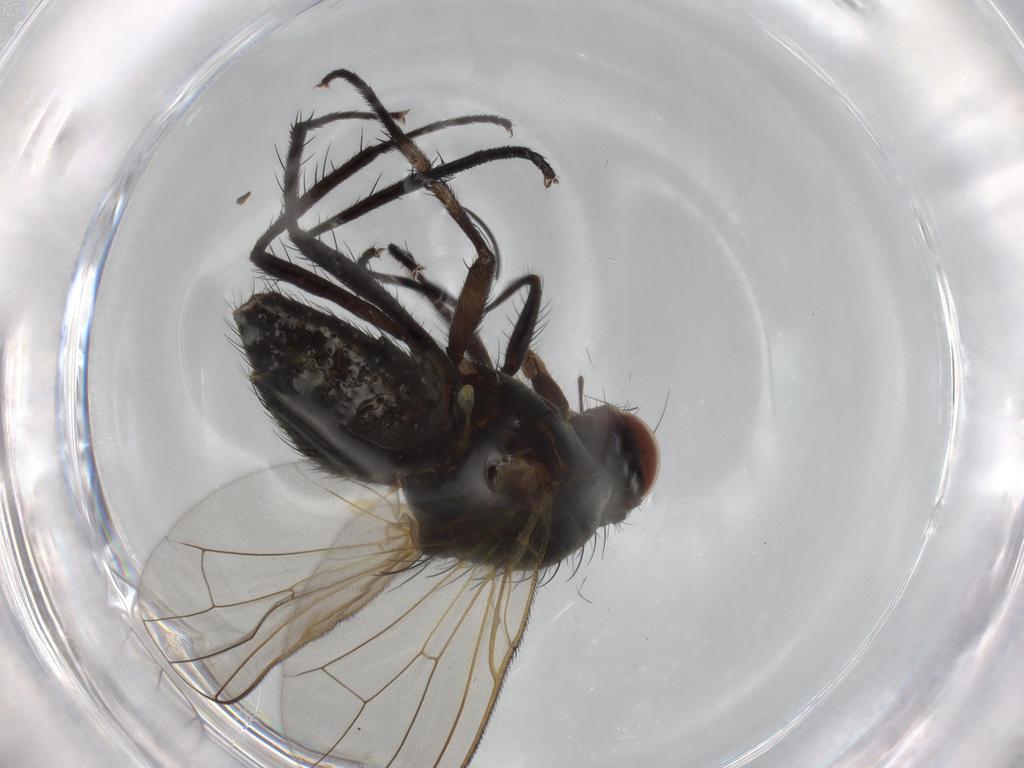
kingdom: Animalia
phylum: Arthropoda
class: Insecta
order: Diptera
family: Anthomyiidae
